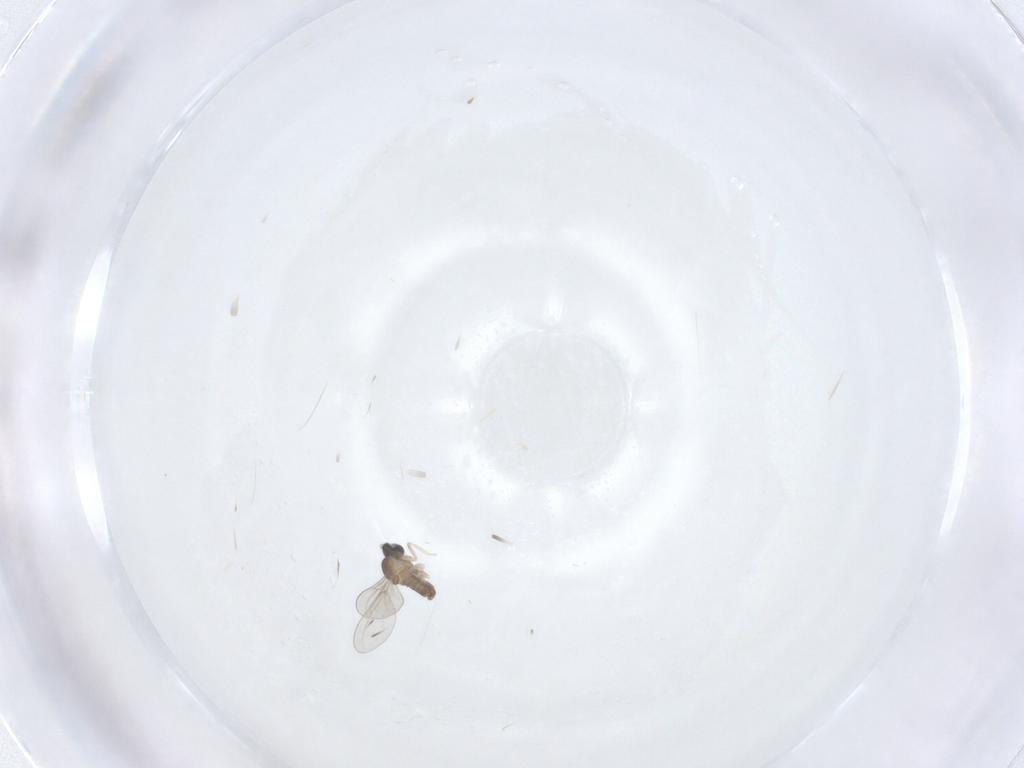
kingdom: Animalia
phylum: Arthropoda
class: Insecta
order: Diptera
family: Cecidomyiidae
